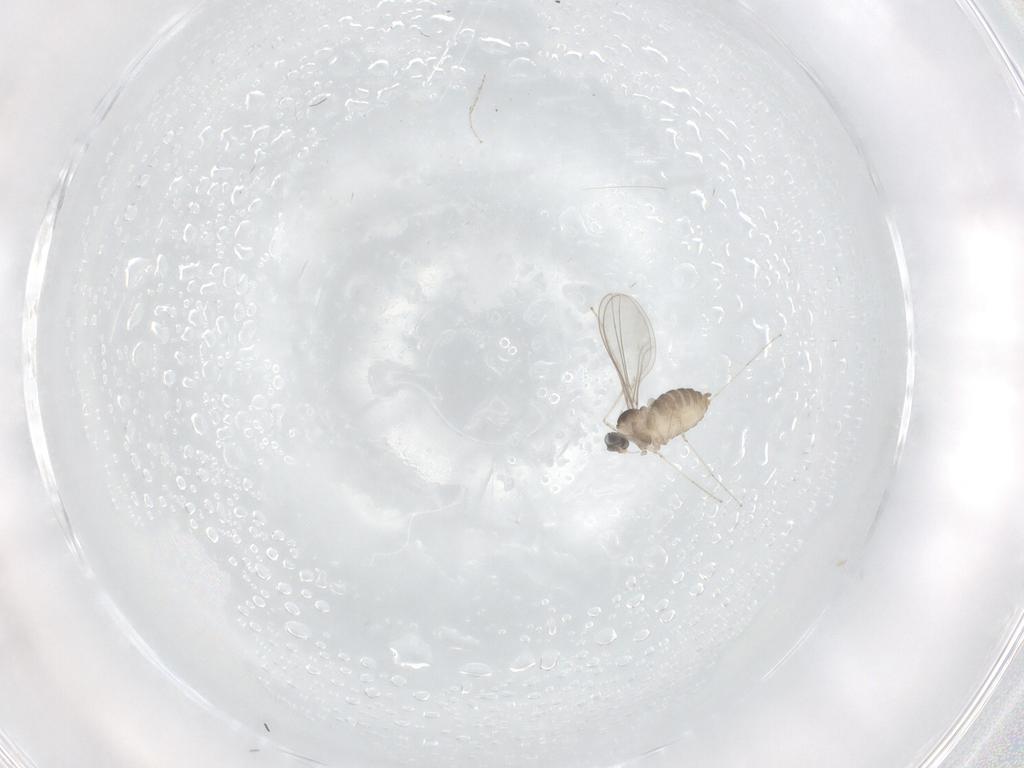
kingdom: Animalia
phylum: Arthropoda
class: Insecta
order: Diptera
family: Cecidomyiidae
